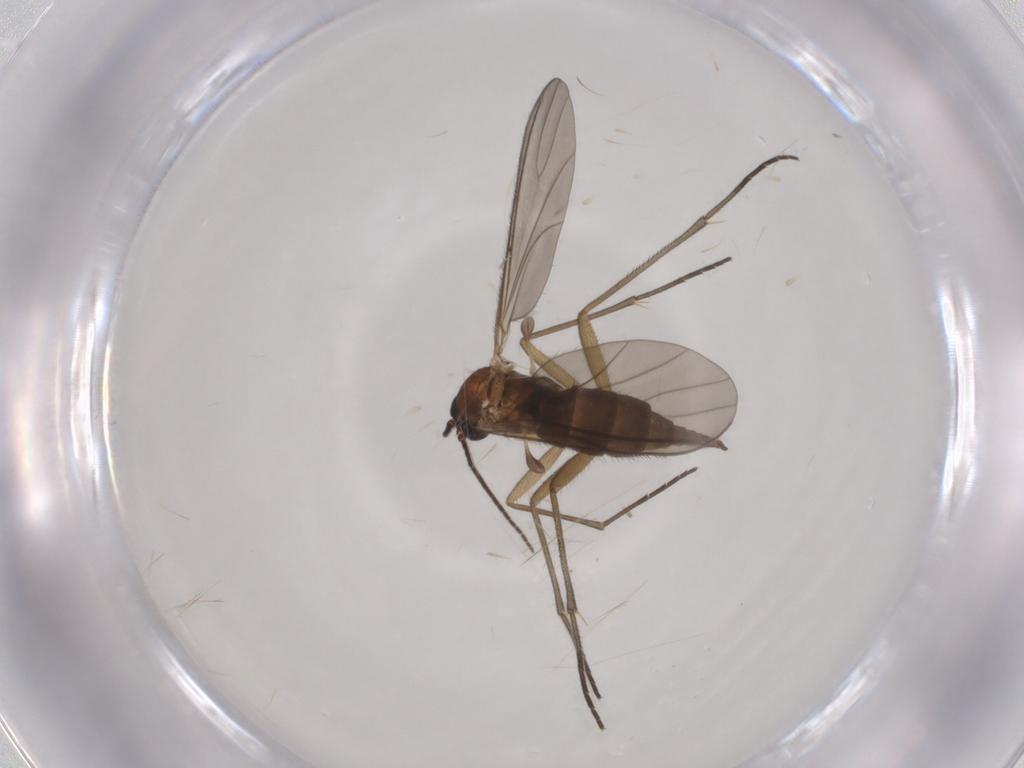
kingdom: Animalia
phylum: Arthropoda
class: Insecta
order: Diptera
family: Sciaridae
